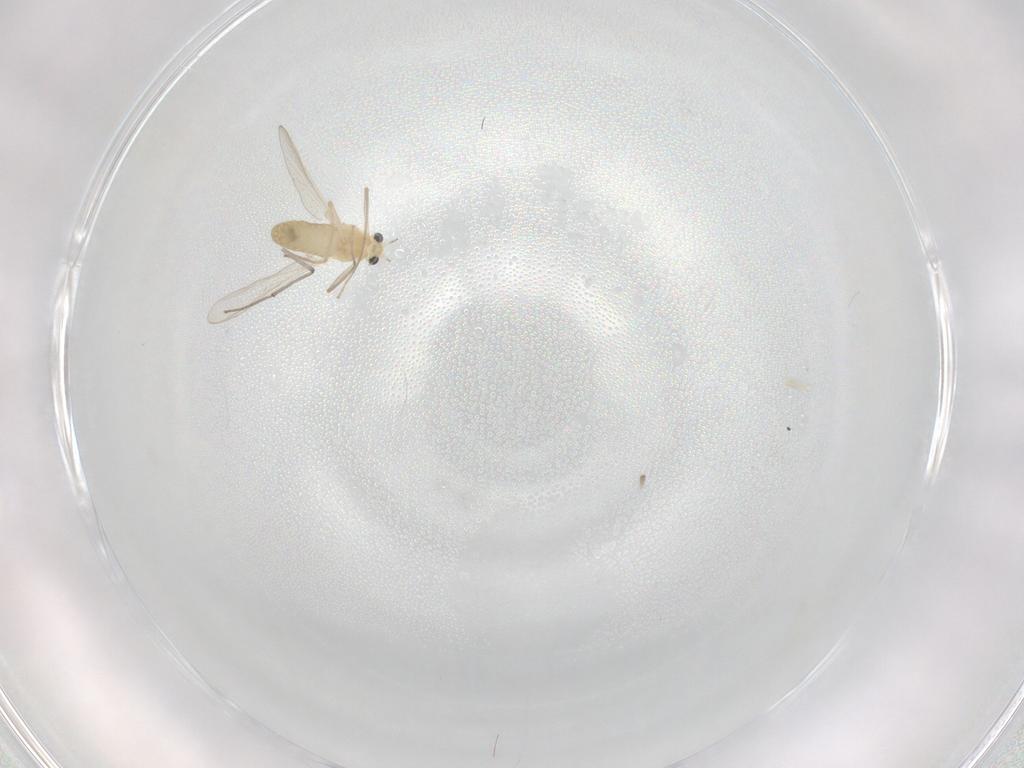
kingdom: Animalia
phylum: Arthropoda
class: Insecta
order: Diptera
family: Chironomidae
